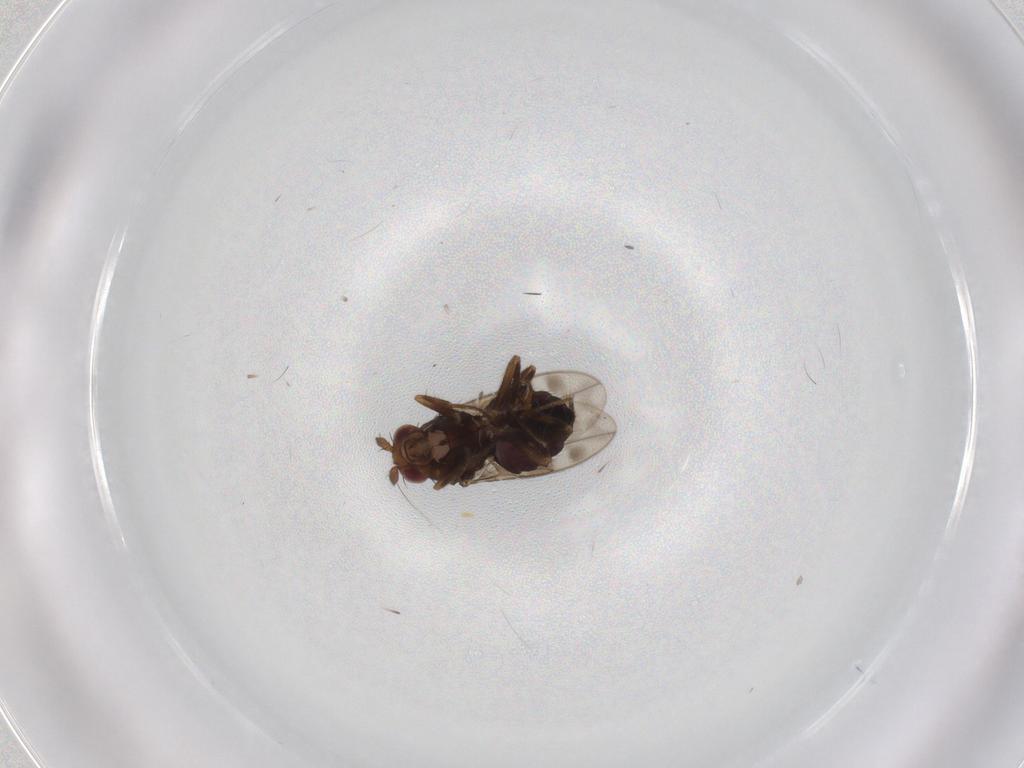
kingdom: Animalia
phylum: Arthropoda
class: Insecta
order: Diptera
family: Sphaeroceridae
